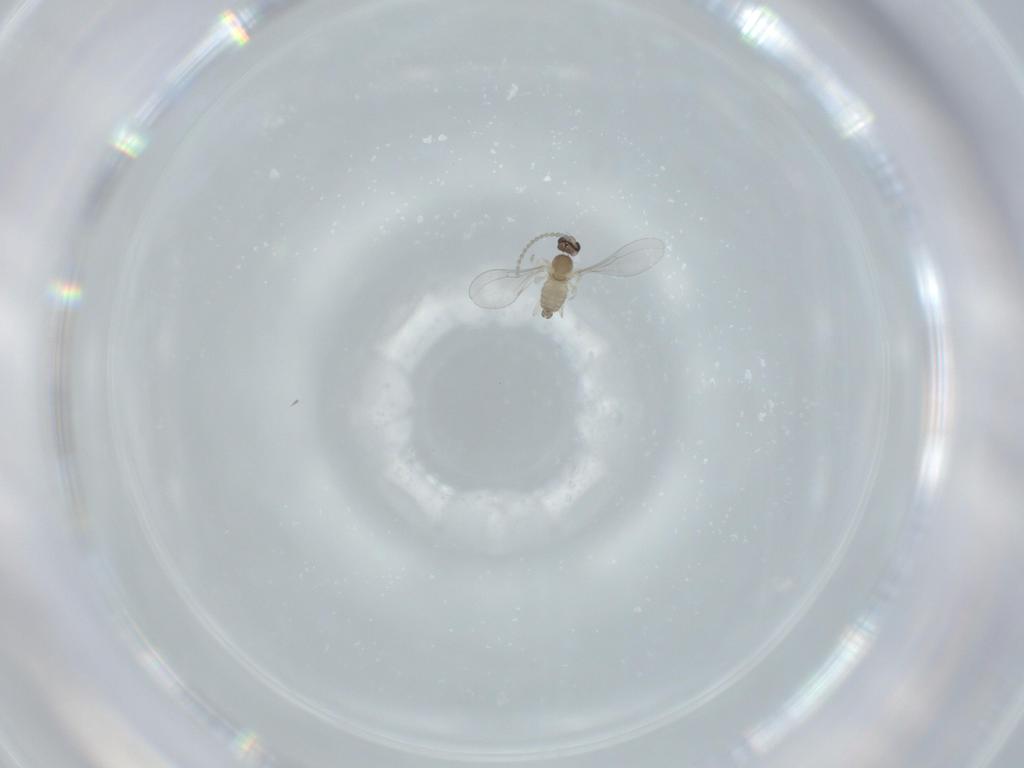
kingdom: Animalia
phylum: Arthropoda
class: Insecta
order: Diptera
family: Cecidomyiidae
